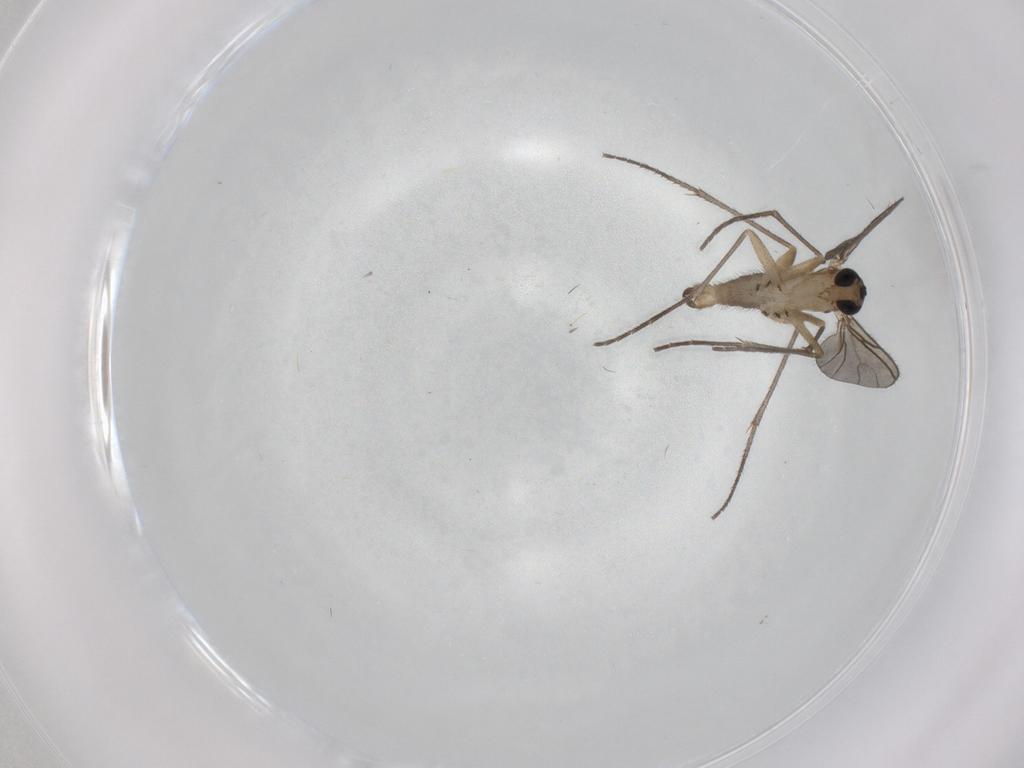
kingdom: Animalia
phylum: Arthropoda
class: Insecta
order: Diptera
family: Sciaridae
